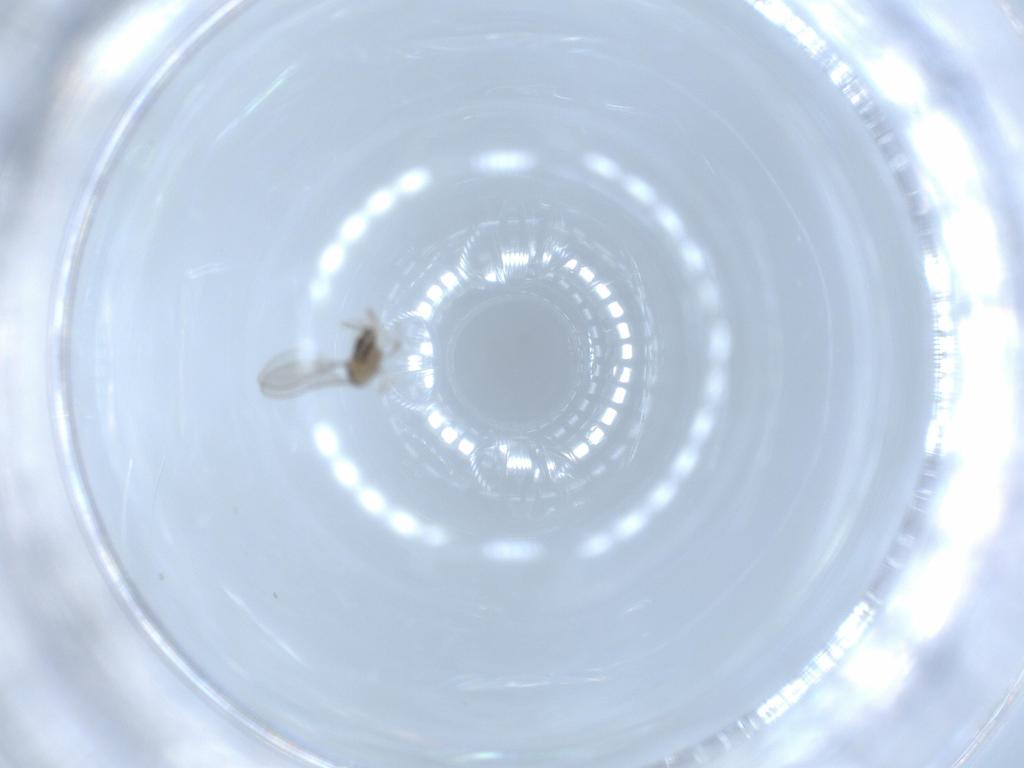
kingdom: Animalia
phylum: Arthropoda
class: Insecta
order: Diptera
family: Cecidomyiidae
